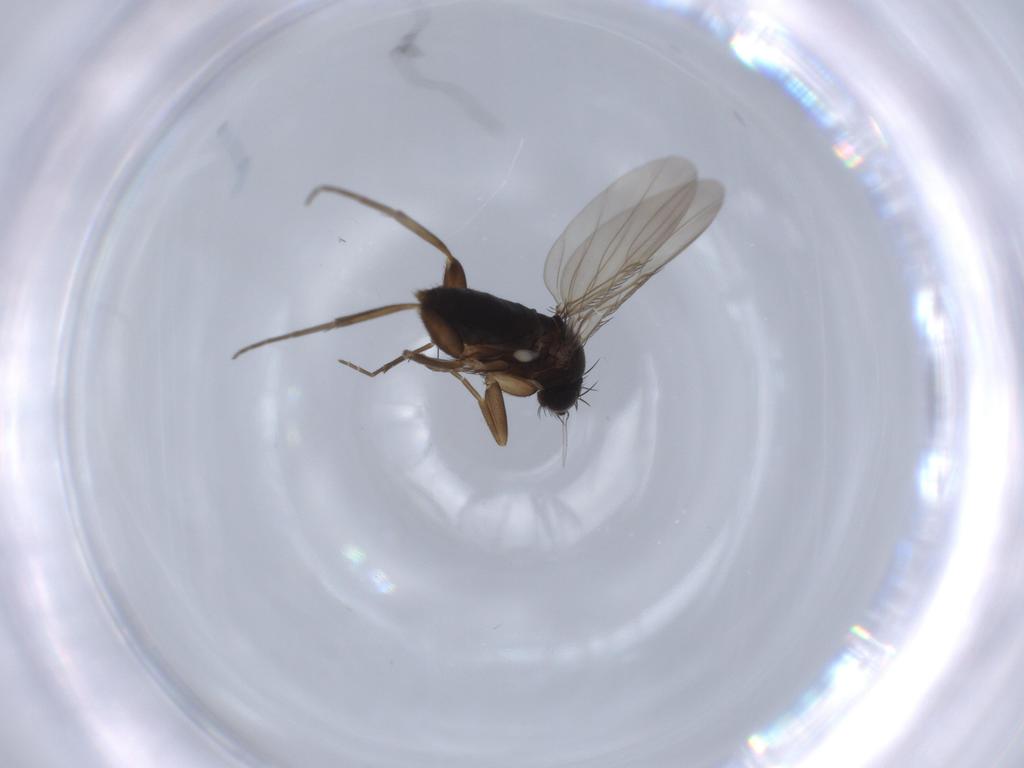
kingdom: Animalia
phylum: Arthropoda
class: Insecta
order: Diptera
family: Phoridae
